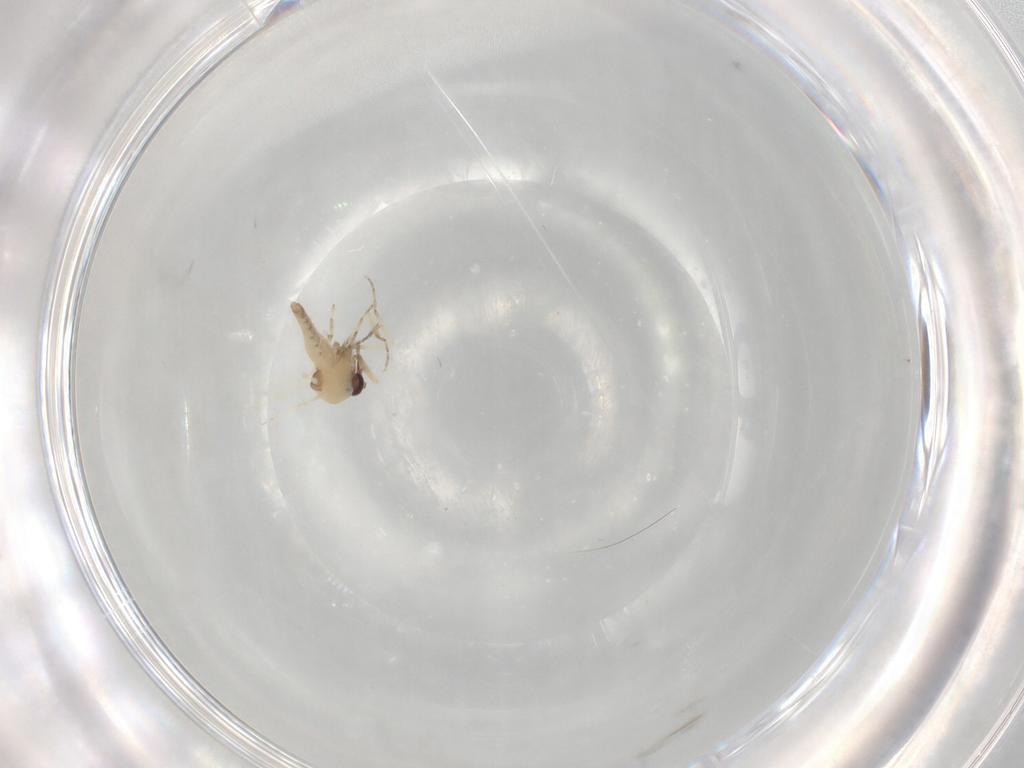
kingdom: Animalia
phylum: Arthropoda
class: Insecta
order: Diptera
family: Ceratopogonidae
